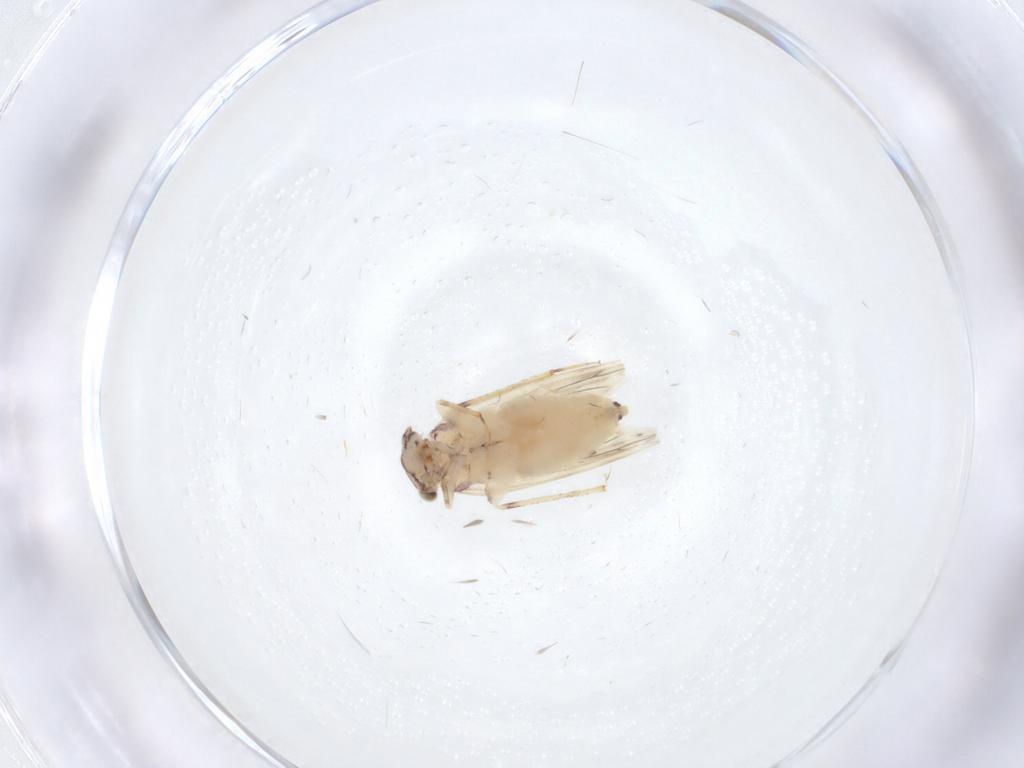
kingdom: Animalia
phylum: Arthropoda
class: Insecta
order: Psocodea
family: Lepidopsocidae
